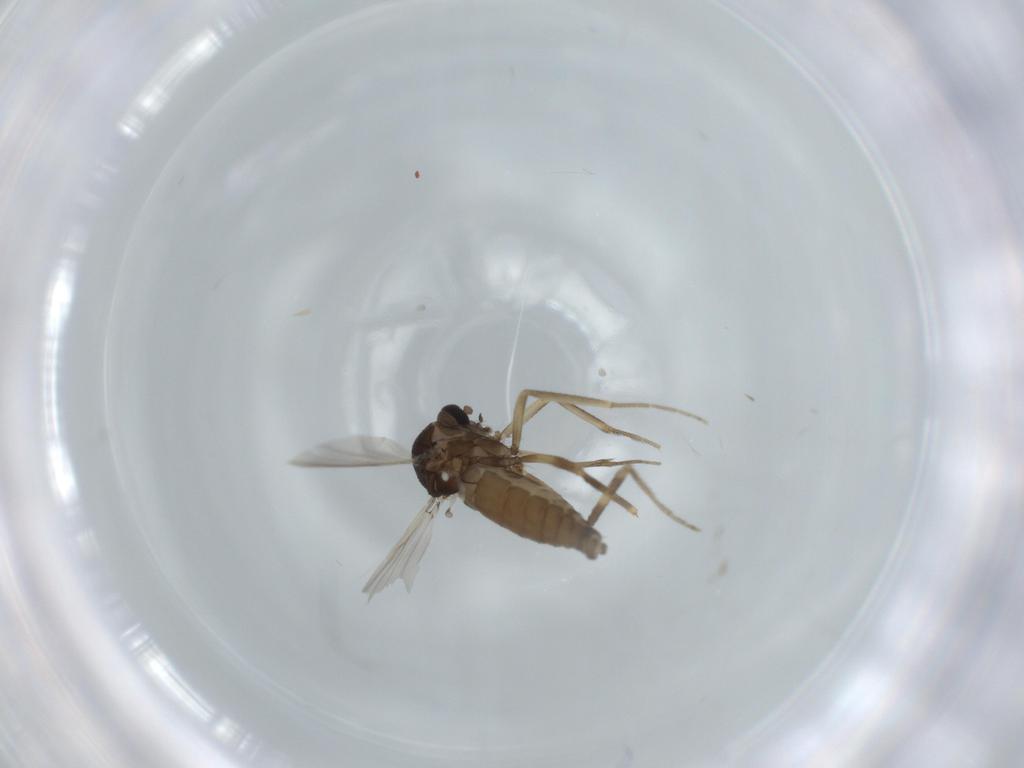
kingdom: Animalia
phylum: Arthropoda
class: Insecta
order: Diptera
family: Ceratopogonidae
